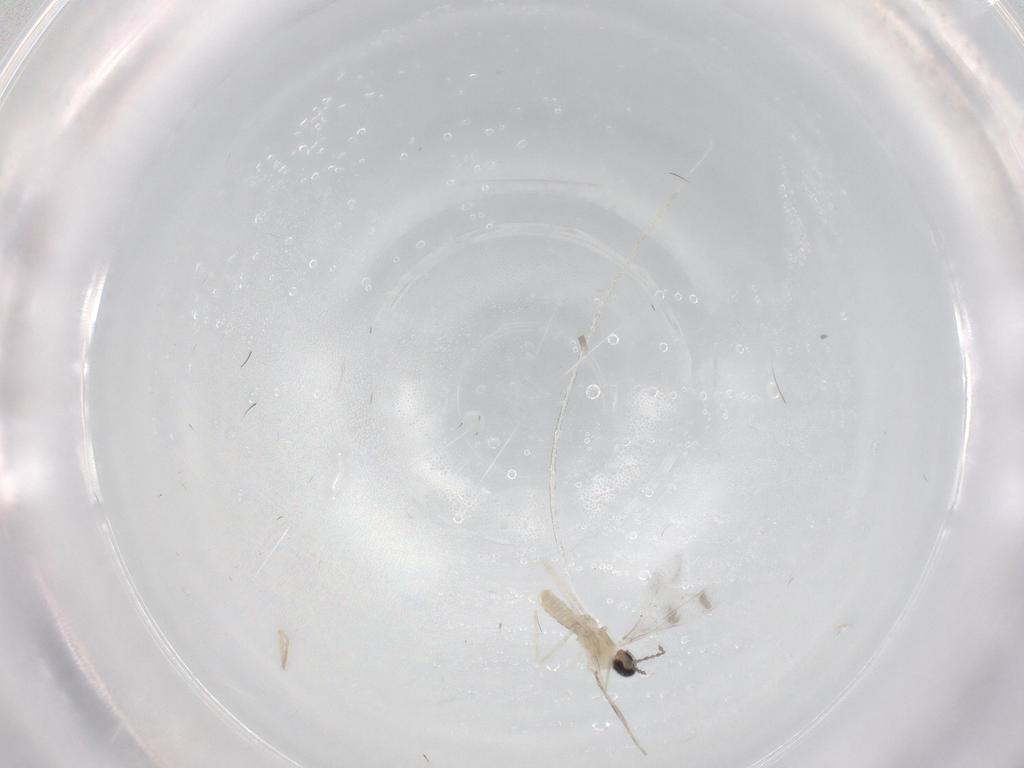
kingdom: Animalia
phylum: Arthropoda
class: Insecta
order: Diptera
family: Cecidomyiidae
